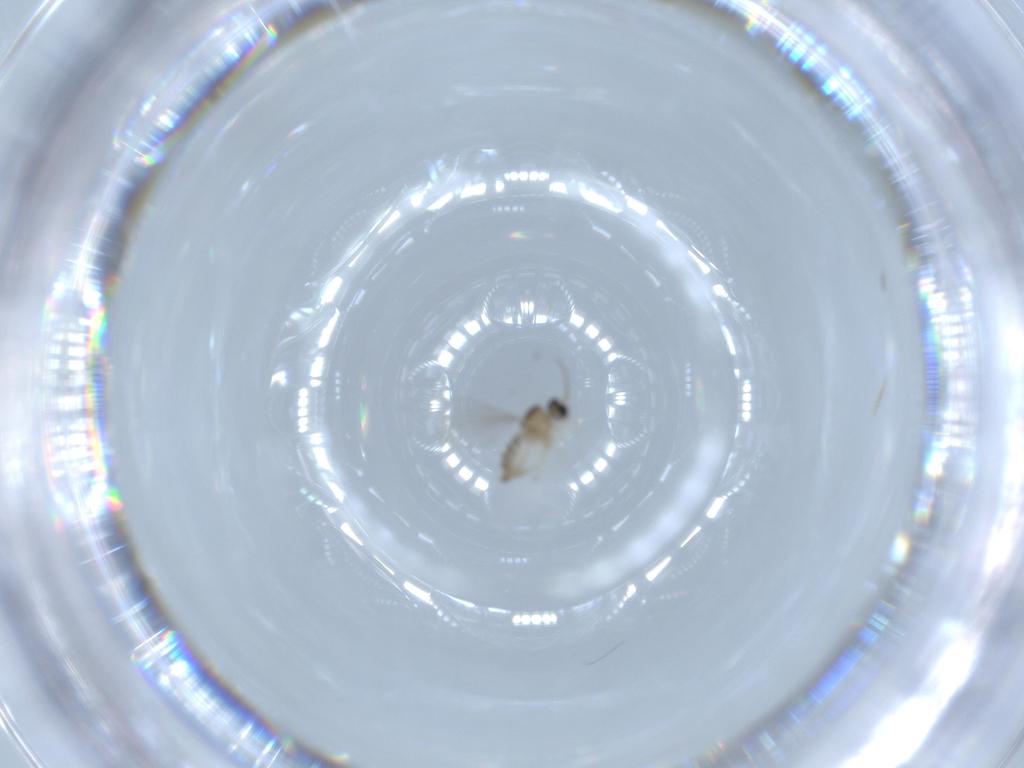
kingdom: Animalia
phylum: Arthropoda
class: Insecta
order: Diptera
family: Cecidomyiidae
